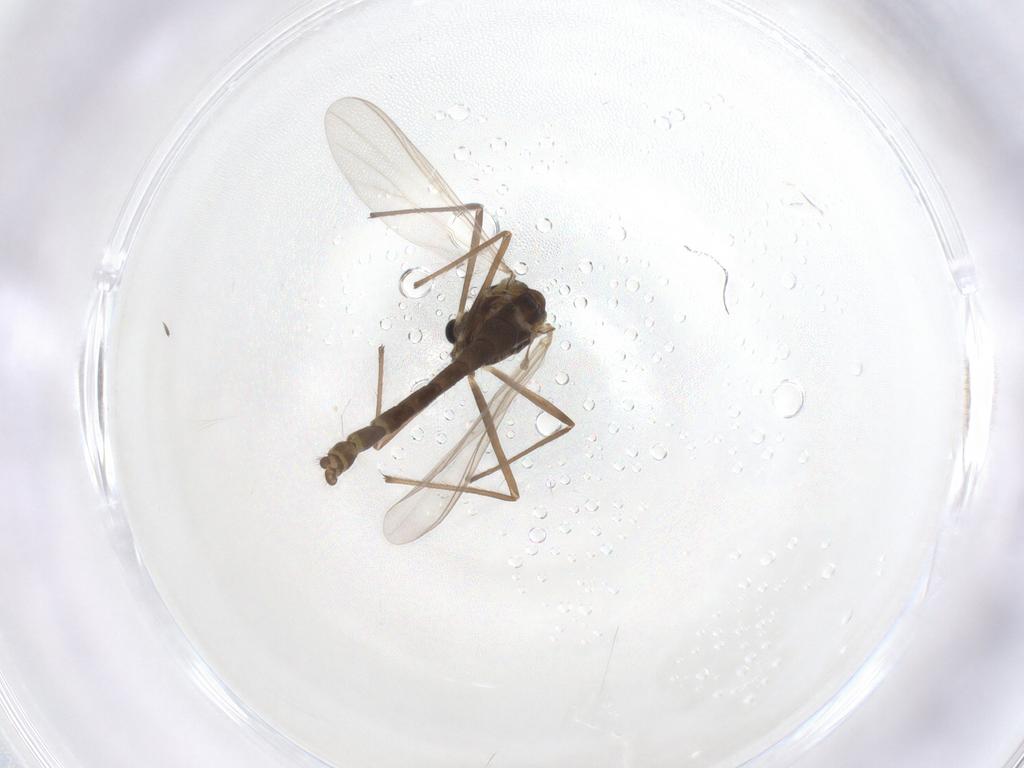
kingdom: Animalia
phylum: Arthropoda
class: Insecta
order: Diptera
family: Chironomidae
